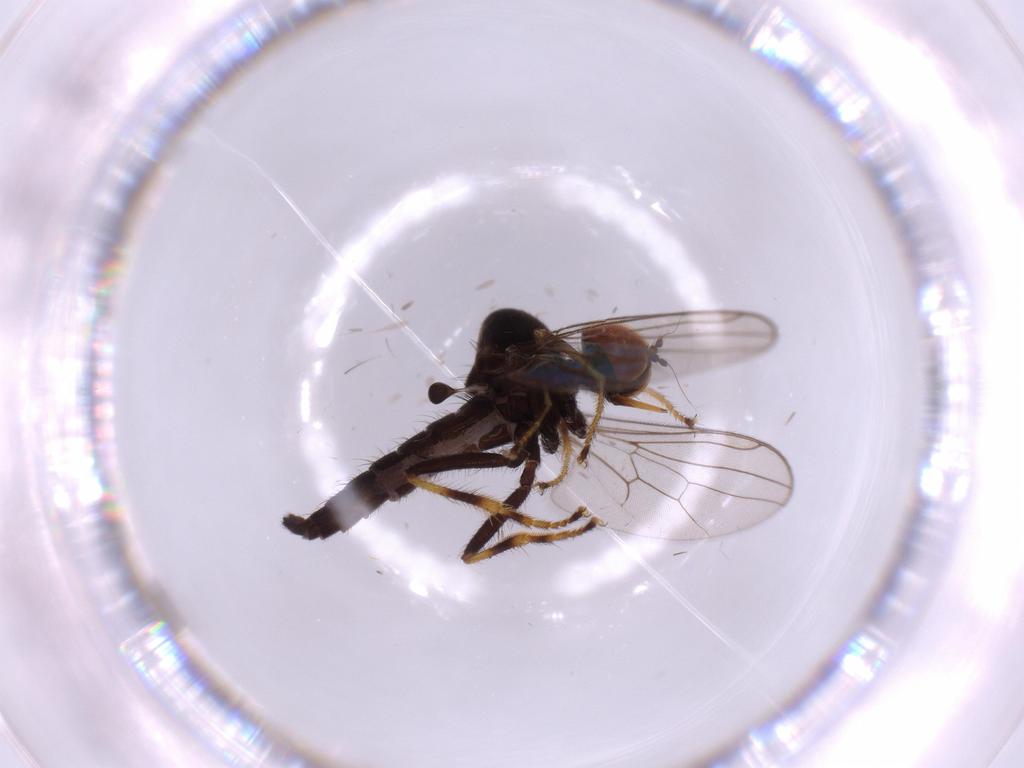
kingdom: Animalia
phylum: Arthropoda
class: Insecta
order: Diptera
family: Hybotidae
